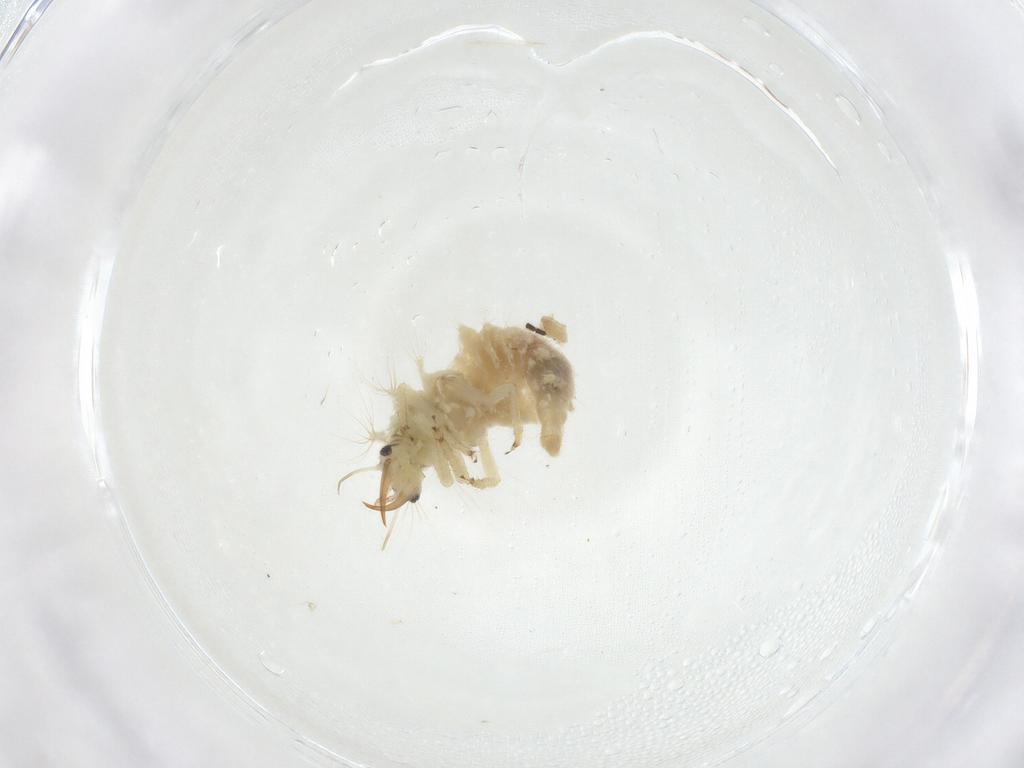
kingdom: Animalia
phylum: Arthropoda
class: Insecta
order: Neuroptera
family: Chrysopidae
